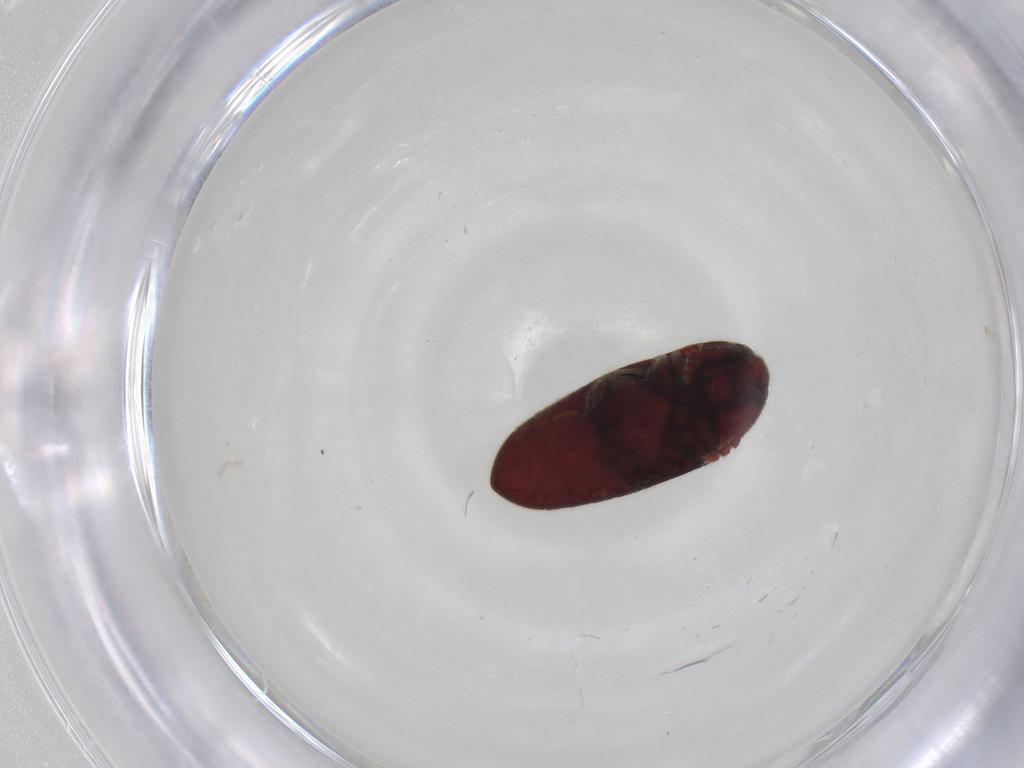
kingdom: Animalia
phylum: Arthropoda
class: Insecta
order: Coleoptera
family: Throscidae
